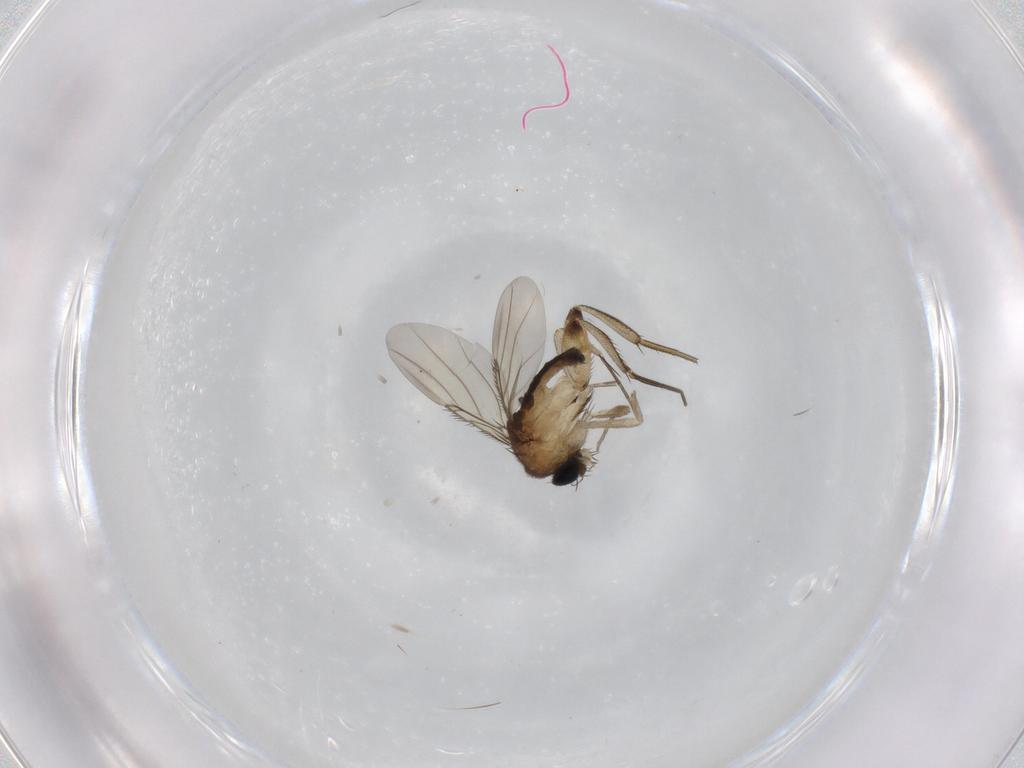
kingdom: Animalia
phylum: Arthropoda
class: Insecta
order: Diptera
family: Phoridae
